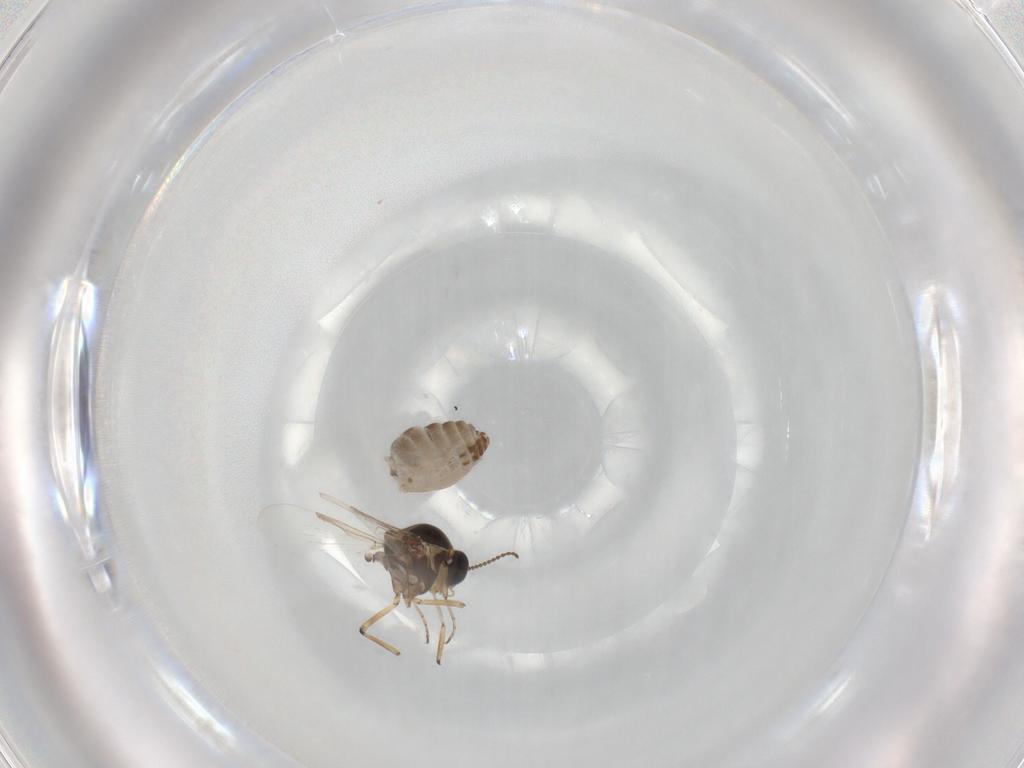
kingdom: Animalia
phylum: Arthropoda
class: Insecta
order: Diptera
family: Ceratopogonidae
